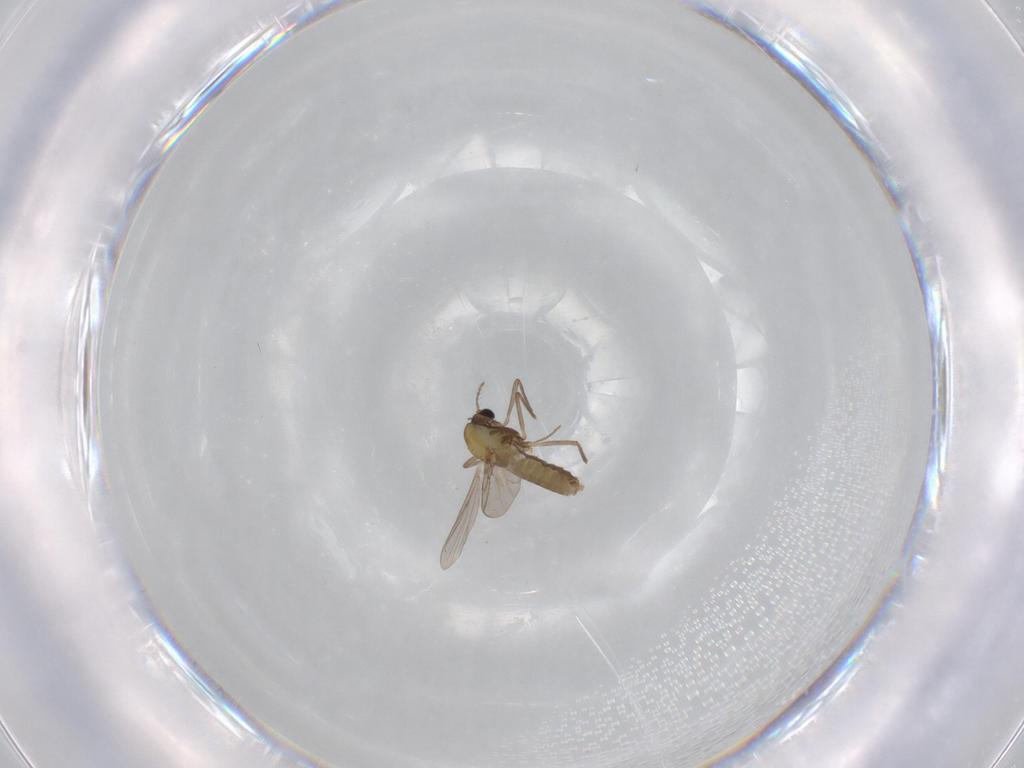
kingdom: Animalia
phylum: Arthropoda
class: Insecta
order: Diptera
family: Chironomidae
